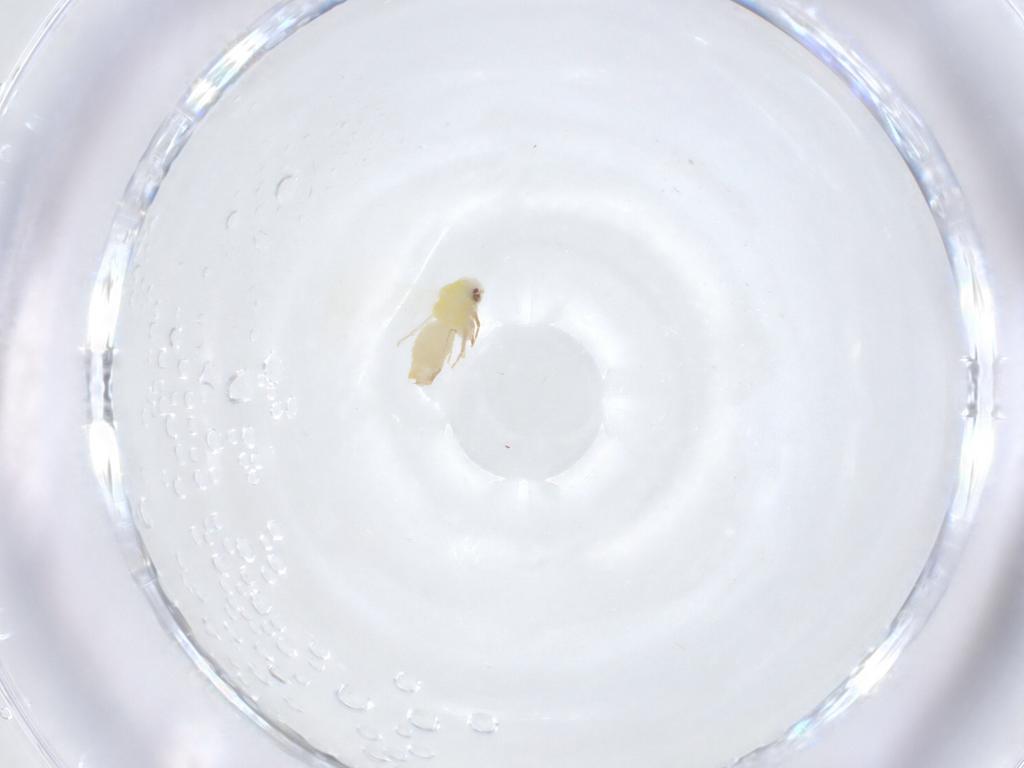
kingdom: Animalia
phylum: Arthropoda
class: Insecta
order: Hemiptera
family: Aleyrodidae
